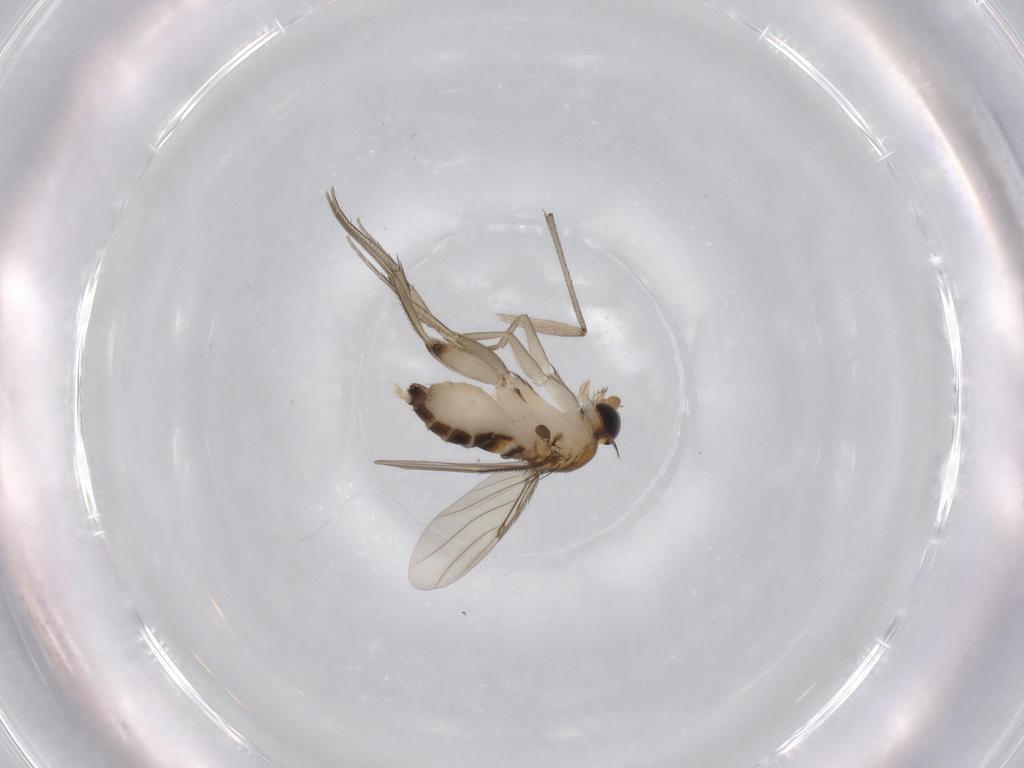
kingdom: Animalia
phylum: Arthropoda
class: Insecta
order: Diptera
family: Phoridae
